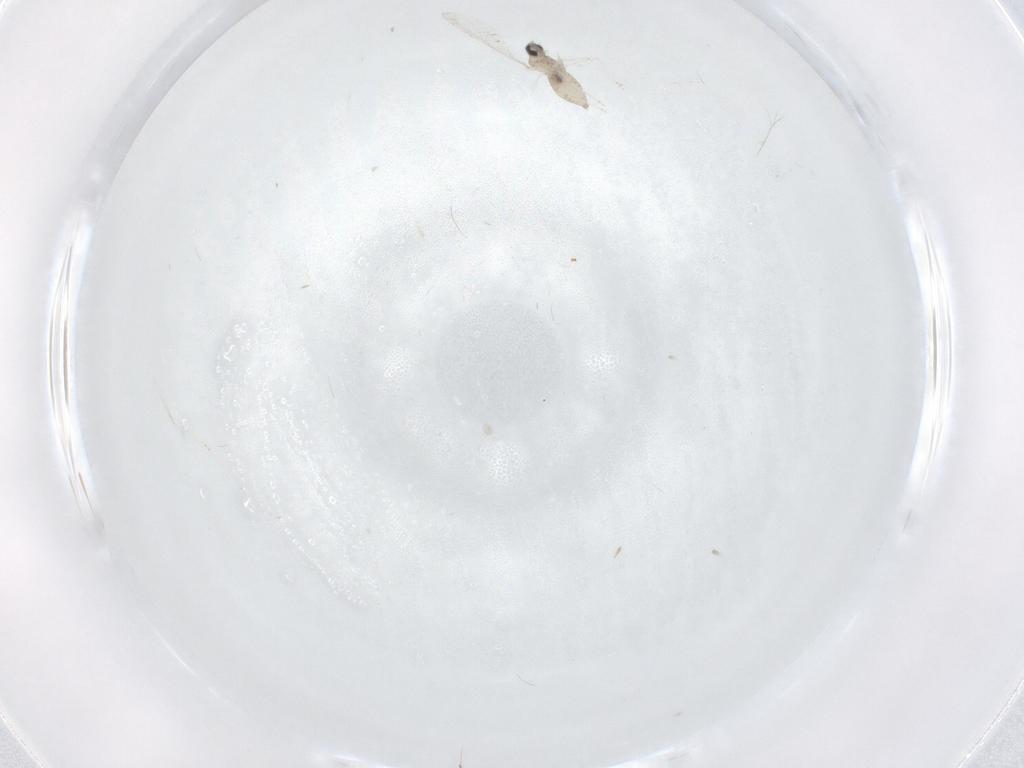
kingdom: Animalia
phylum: Arthropoda
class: Insecta
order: Diptera
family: Cecidomyiidae
